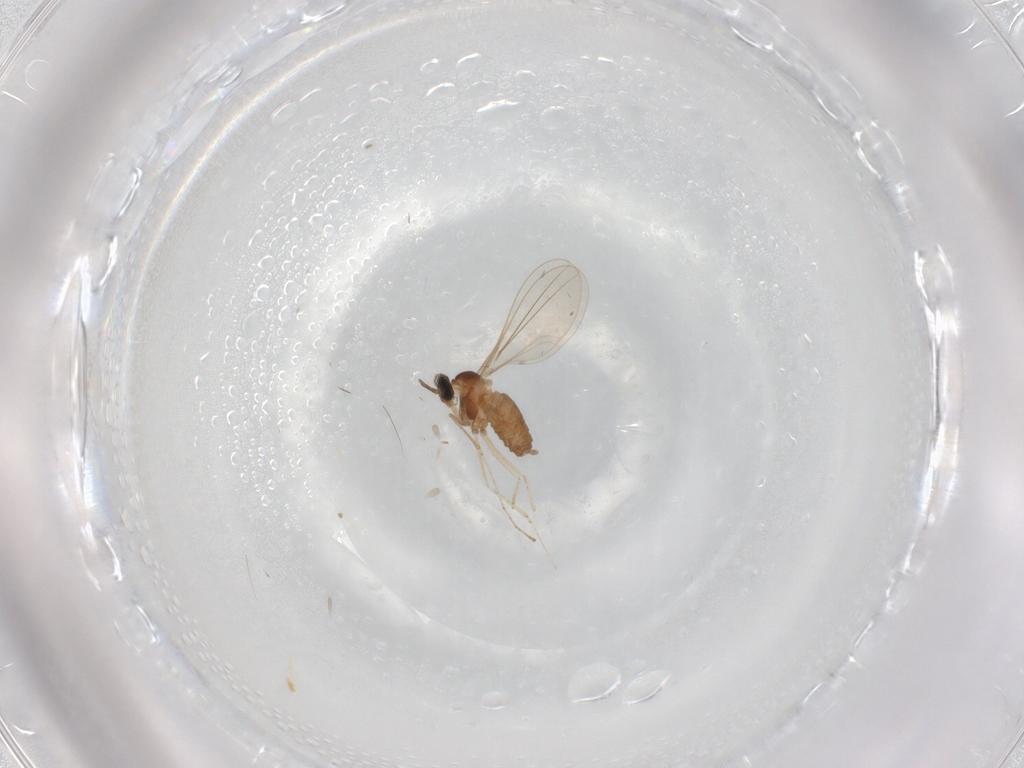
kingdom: Animalia
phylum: Arthropoda
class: Insecta
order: Diptera
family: Cecidomyiidae
